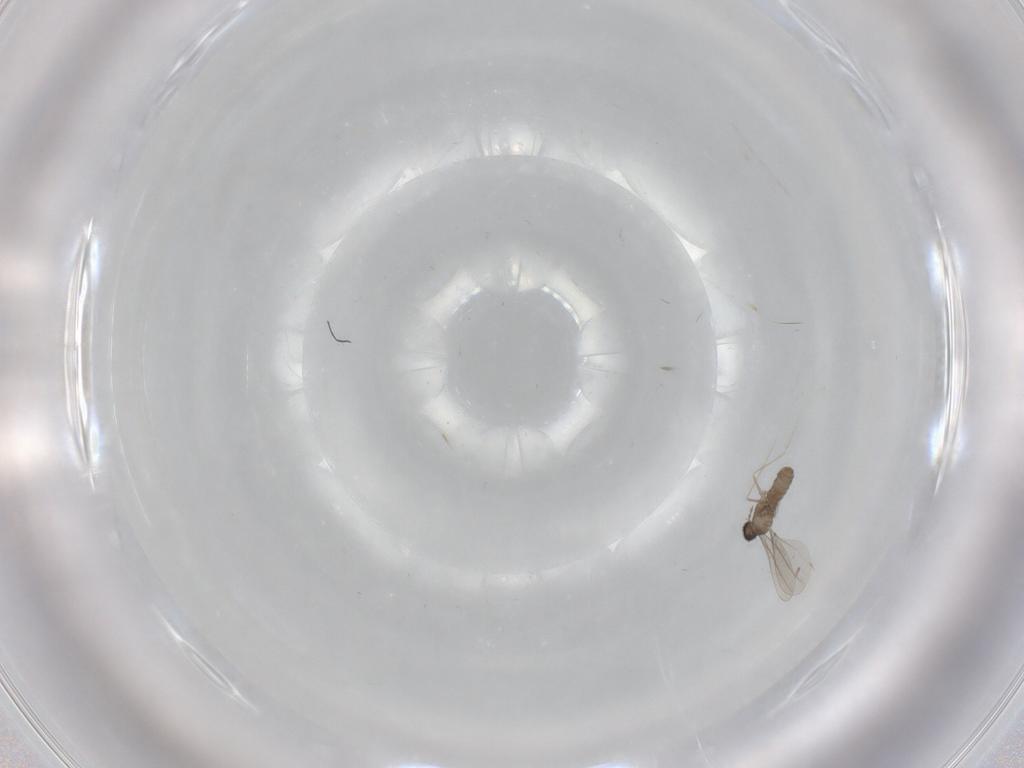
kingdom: Animalia
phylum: Arthropoda
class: Insecta
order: Diptera
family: Cecidomyiidae
